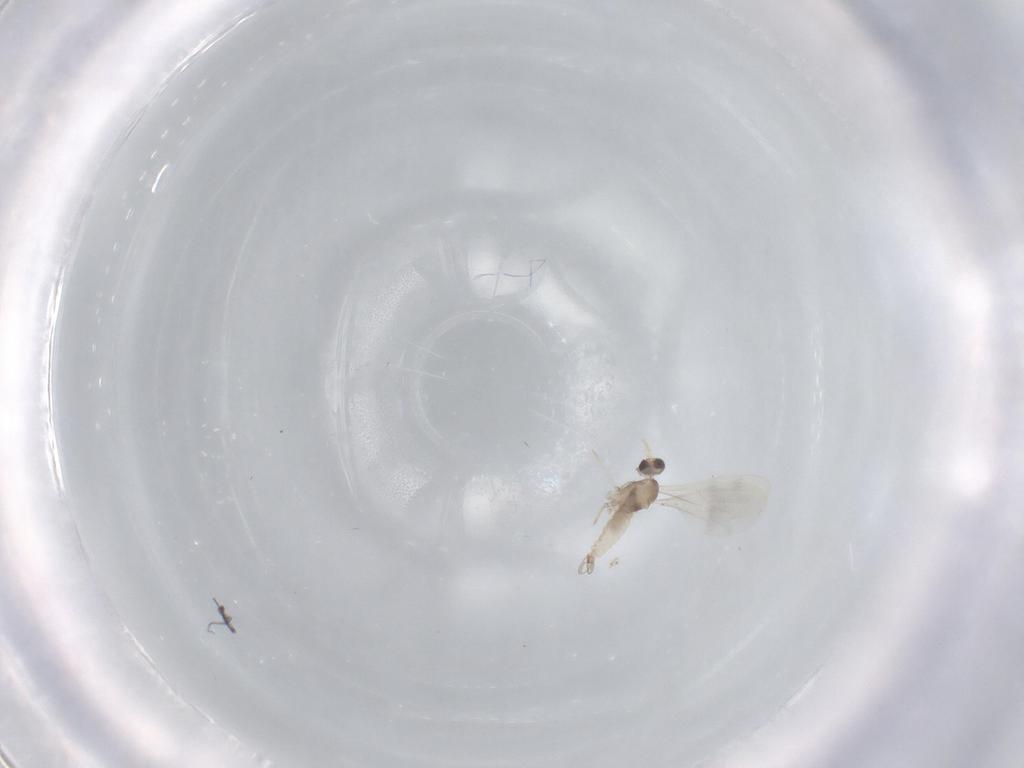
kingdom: Animalia
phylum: Arthropoda
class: Insecta
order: Diptera
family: Cecidomyiidae
